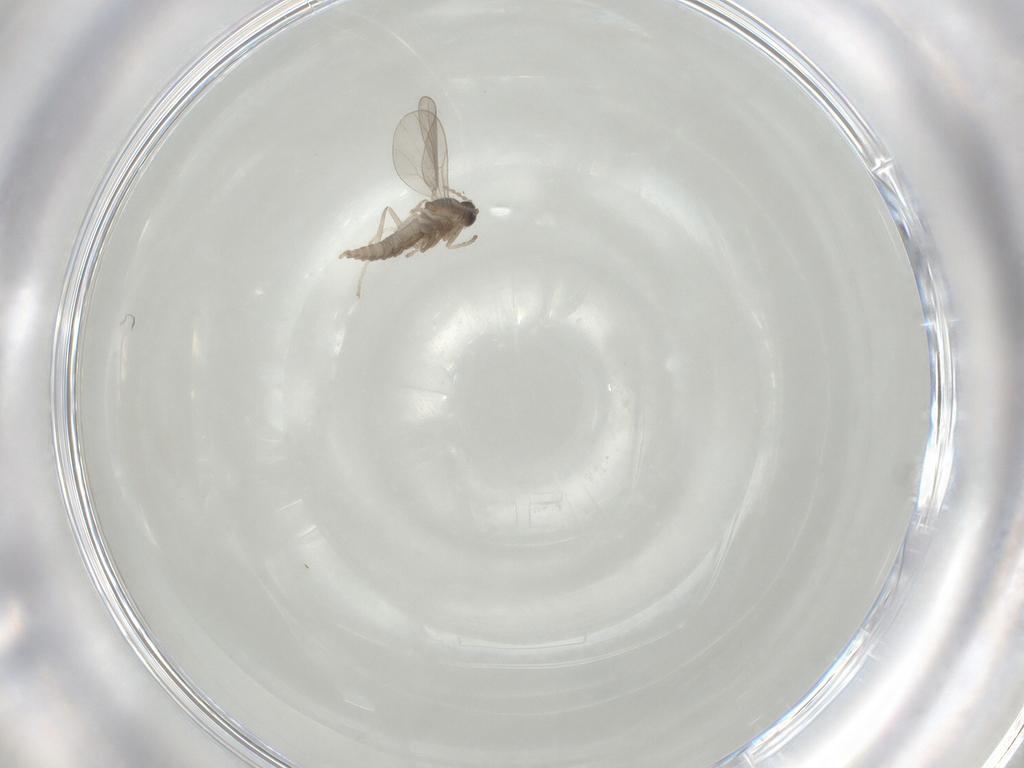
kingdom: Animalia
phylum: Arthropoda
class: Insecta
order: Diptera
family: Cecidomyiidae
